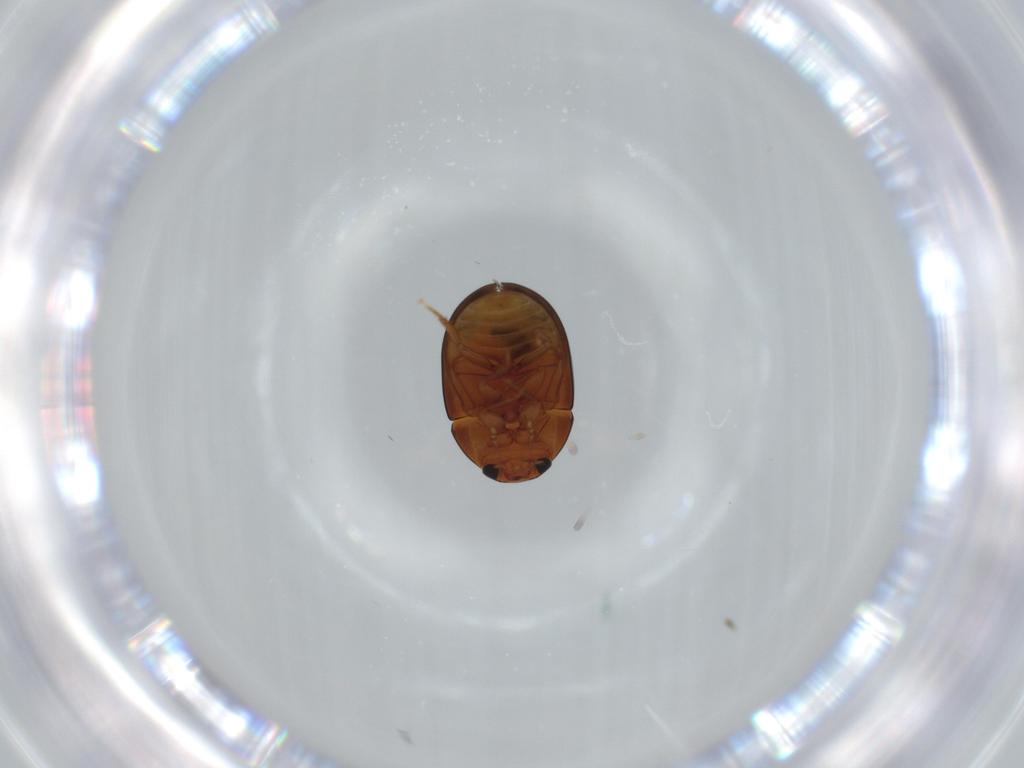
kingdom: Animalia
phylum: Arthropoda
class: Insecta
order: Coleoptera
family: Phalacridae
